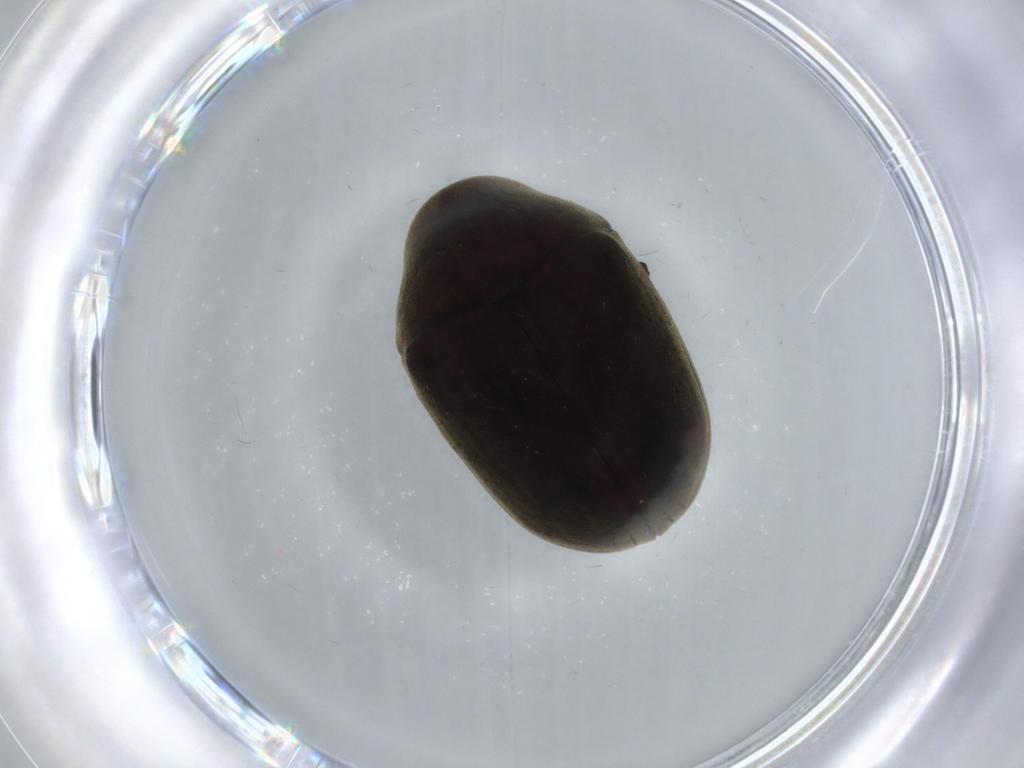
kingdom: Animalia
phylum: Arthropoda
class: Insecta
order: Coleoptera
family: Ptinidae
